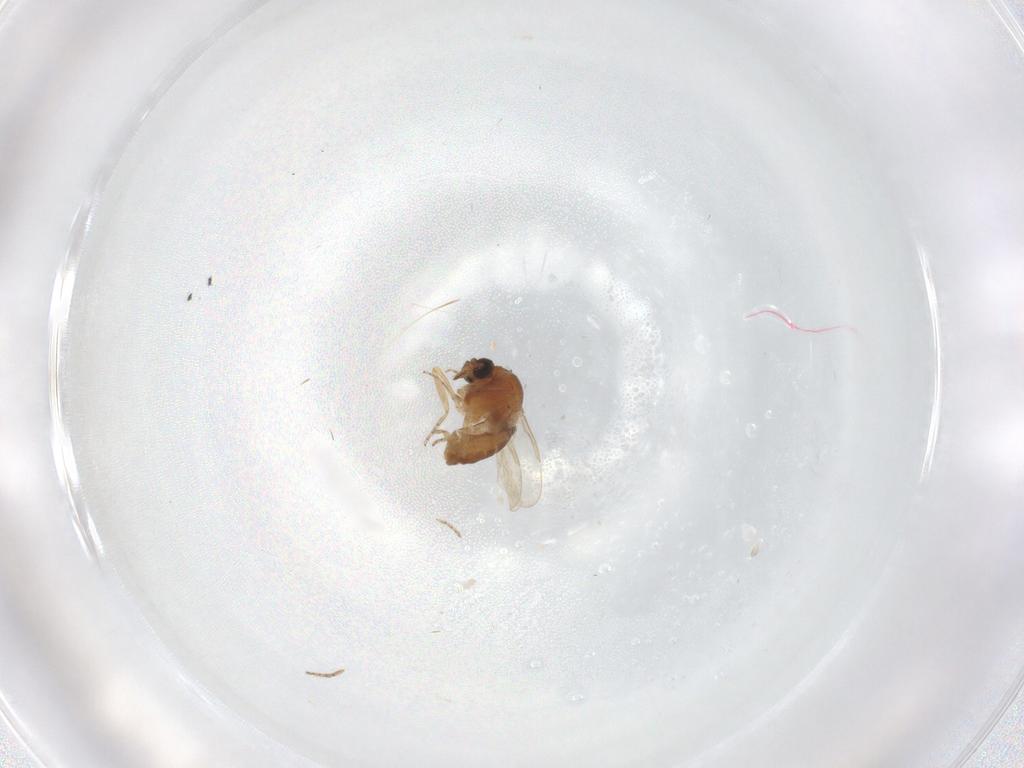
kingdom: Animalia
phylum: Arthropoda
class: Insecta
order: Diptera
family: Ceratopogonidae
